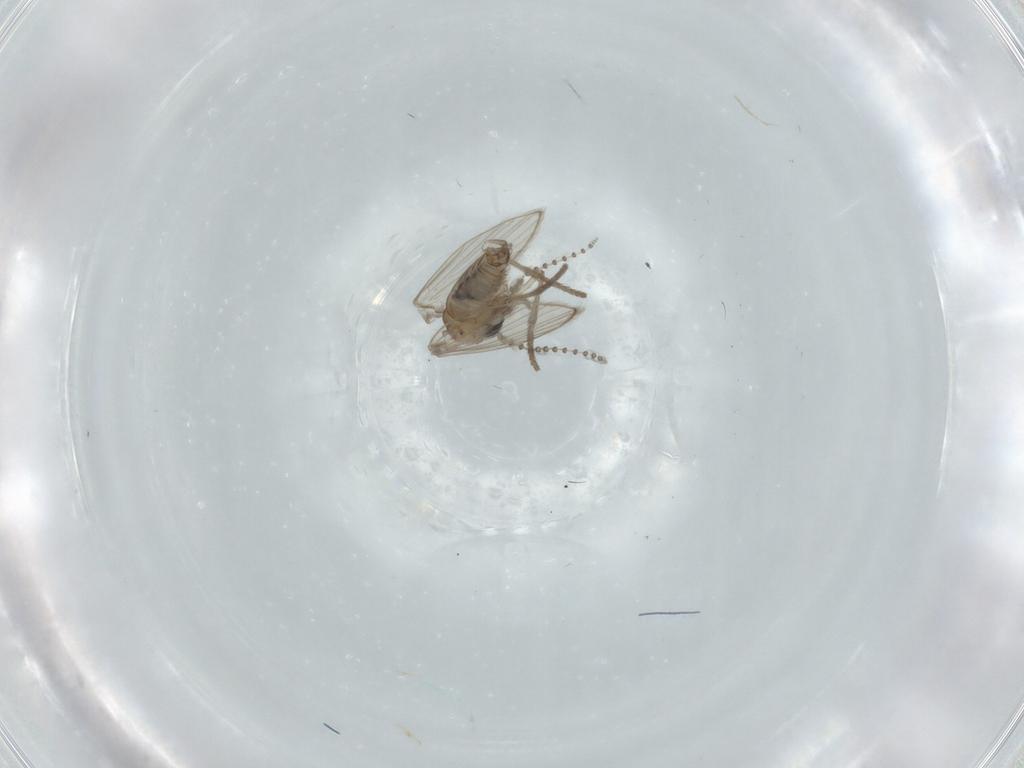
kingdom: Animalia
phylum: Arthropoda
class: Insecta
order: Diptera
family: Psychodidae
